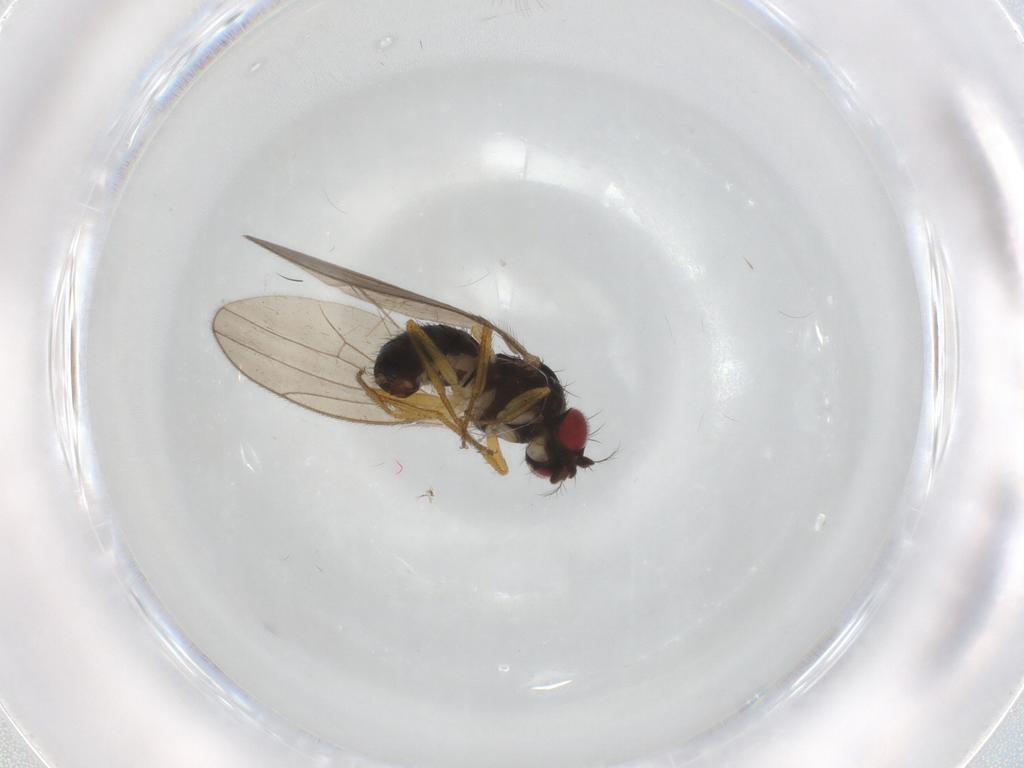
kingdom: Animalia
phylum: Arthropoda
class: Insecta
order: Diptera
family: Drosophilidae
